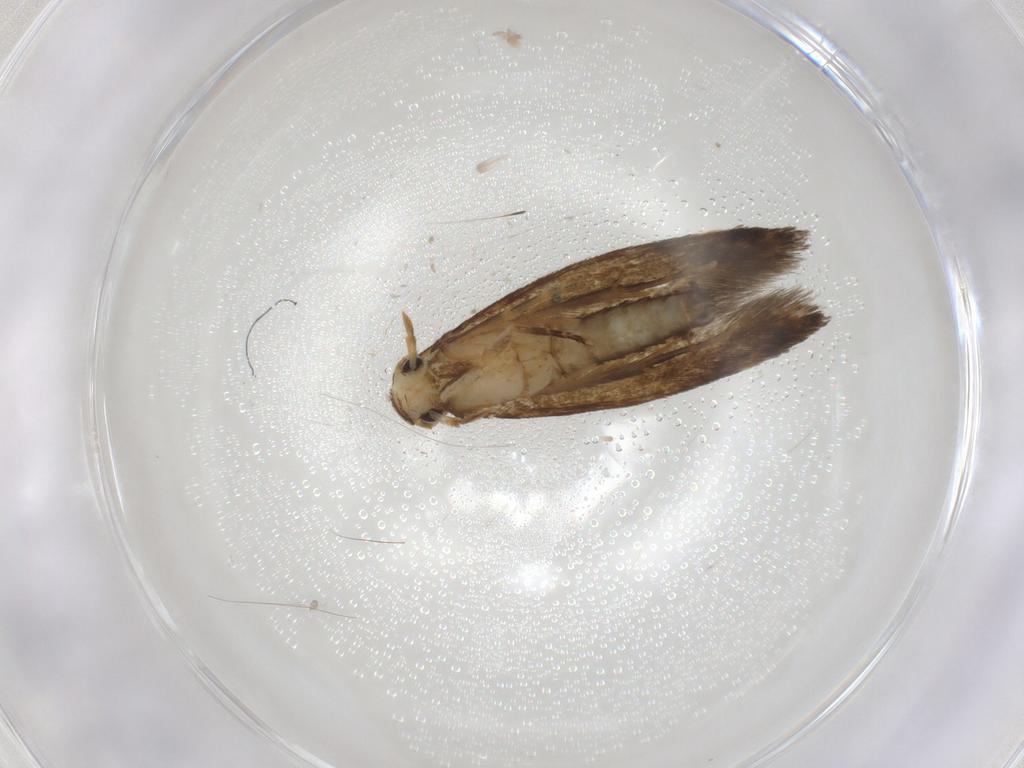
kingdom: Animalia
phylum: Arthropoda
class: Insecta
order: Lepidoptera
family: Tineidae
